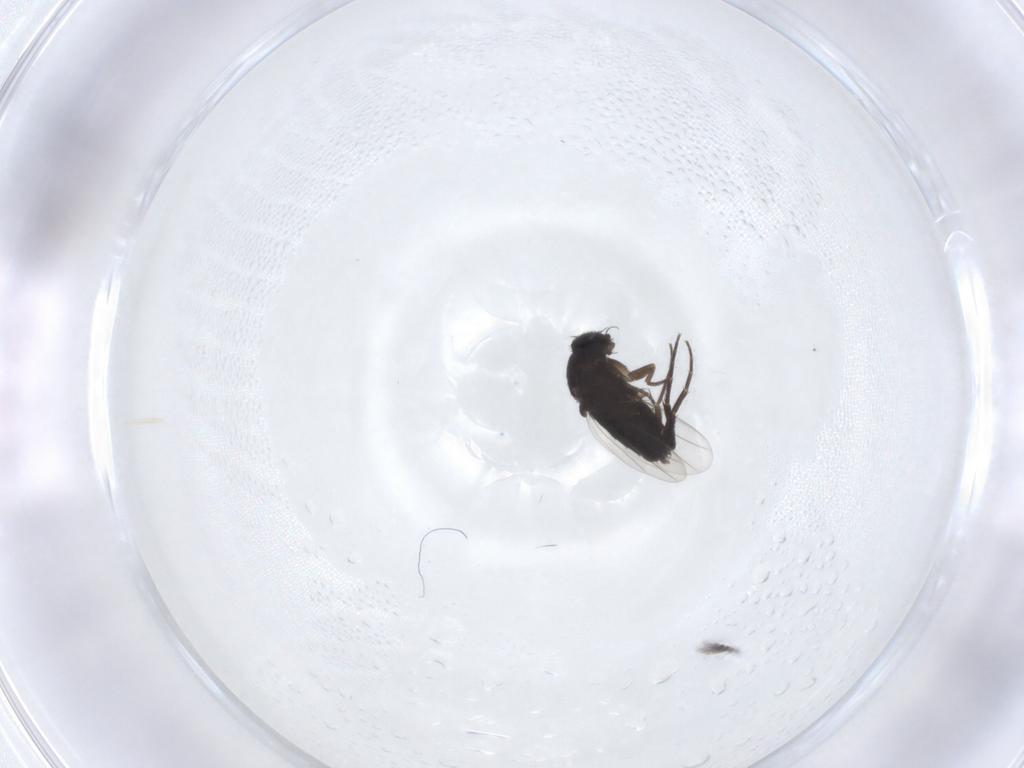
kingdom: Animalia
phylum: Arthropoda
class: Insecta
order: Diptera
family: Phoridae
